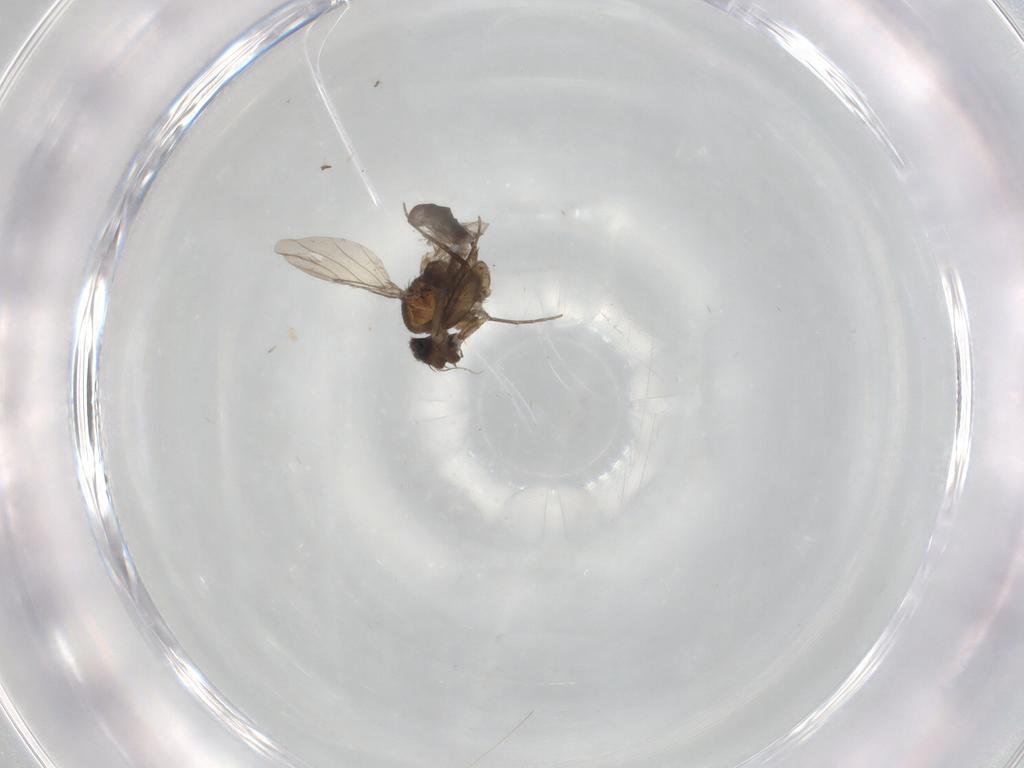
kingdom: Animalia
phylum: Arthropoda
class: Insecta
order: Diptera
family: Phoridae
